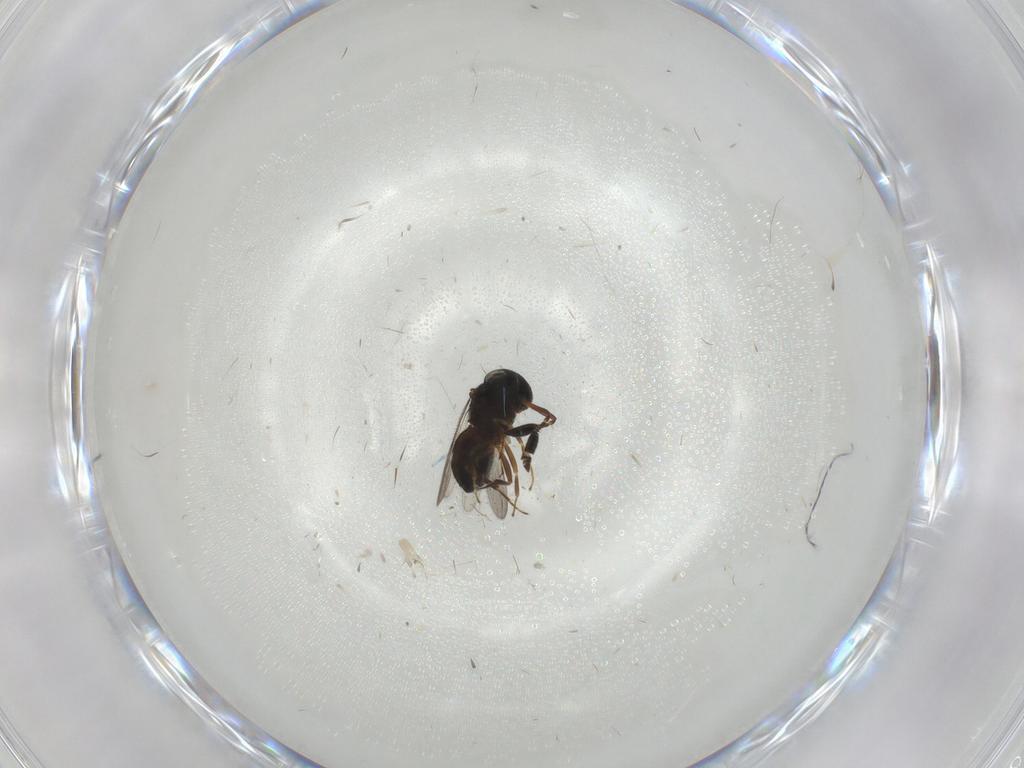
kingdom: Animalia
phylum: Arthropoda
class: Insecta
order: Hymenoptera
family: Scelionidae
